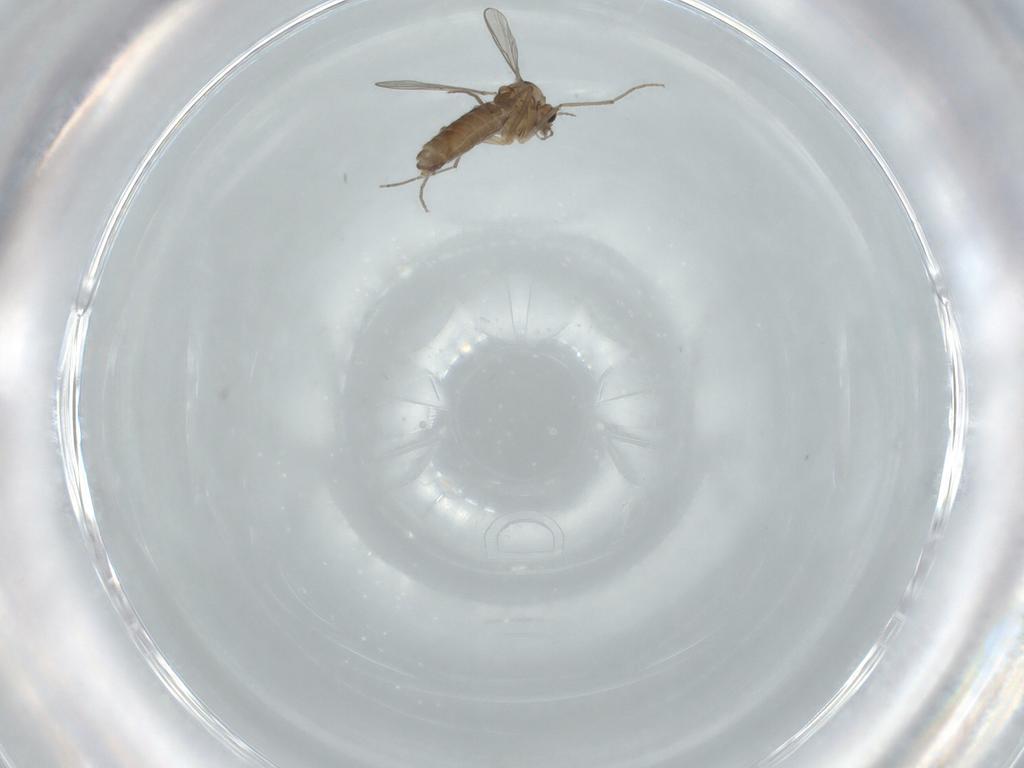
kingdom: Animalia
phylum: Arthropoda
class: Insecta
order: Diptera
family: Chironomidae
